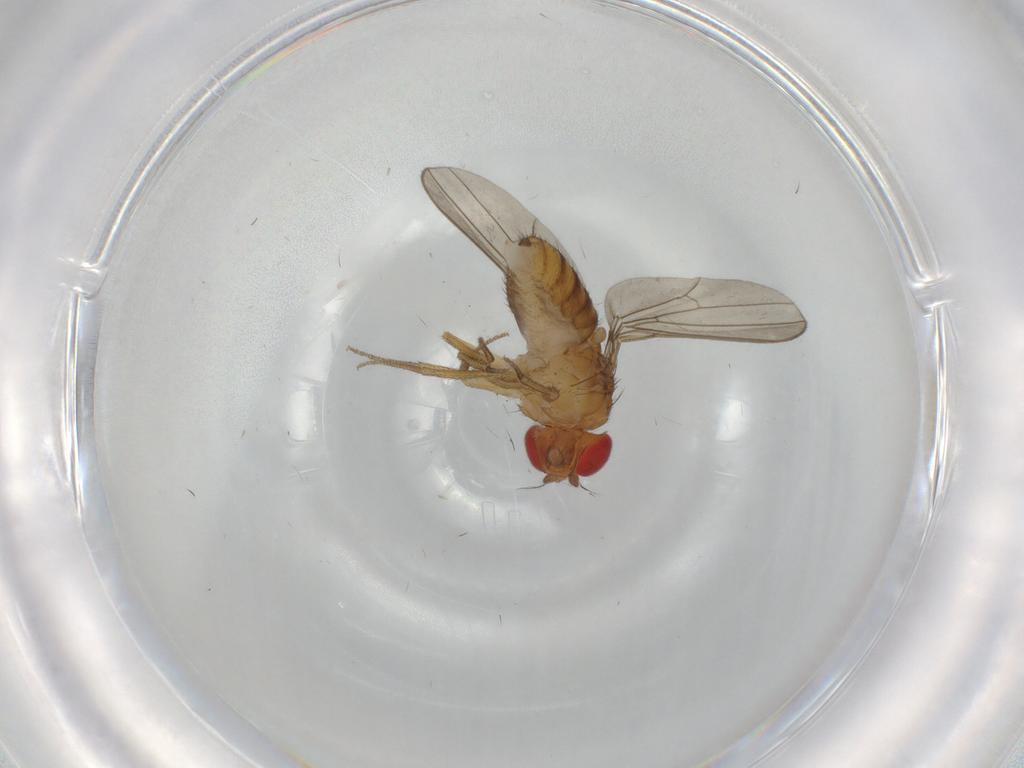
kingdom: Animalia
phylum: Arthropoda
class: Insecta
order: Diptera
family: Drosophilidae
